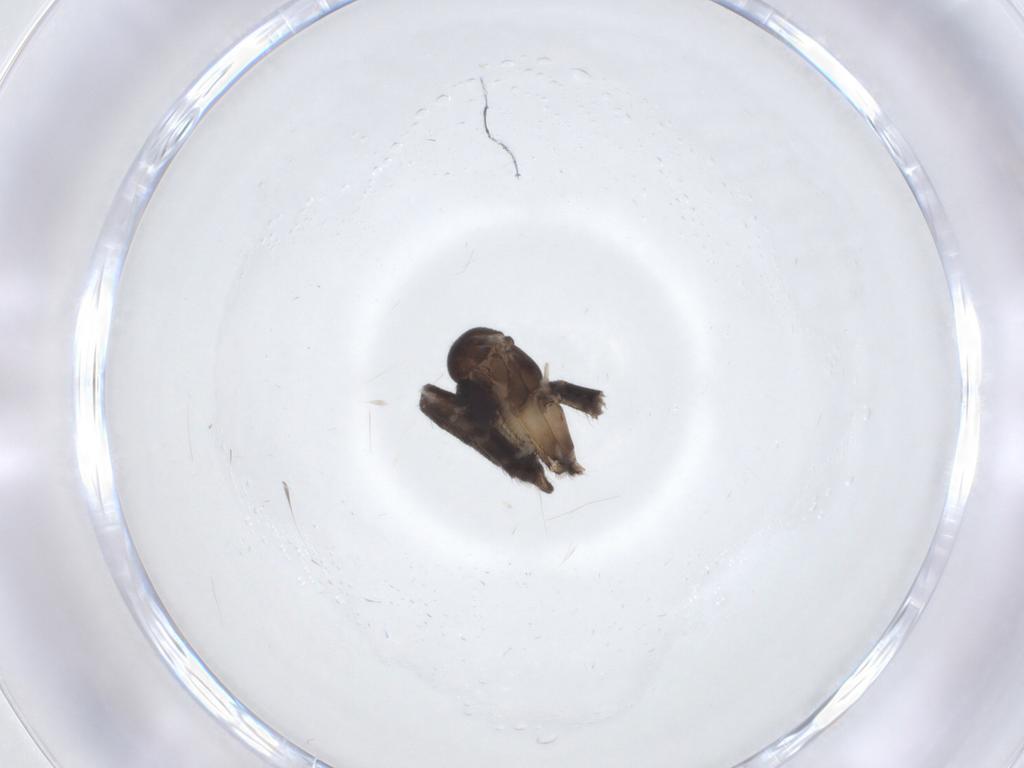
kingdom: Animalia
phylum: Arthropoda
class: Insecta
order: Diptera
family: Mycetophilidae
